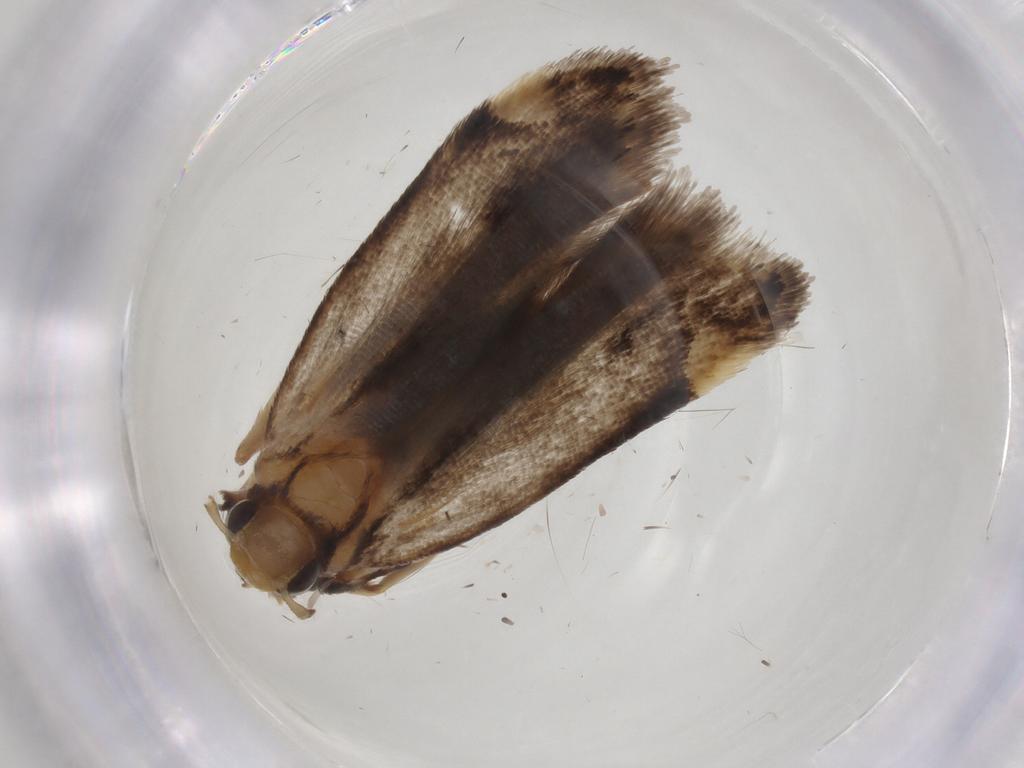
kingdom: Animalia
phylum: Arthropoda
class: Insecta
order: Lepidoptera
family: Gelechiidae
